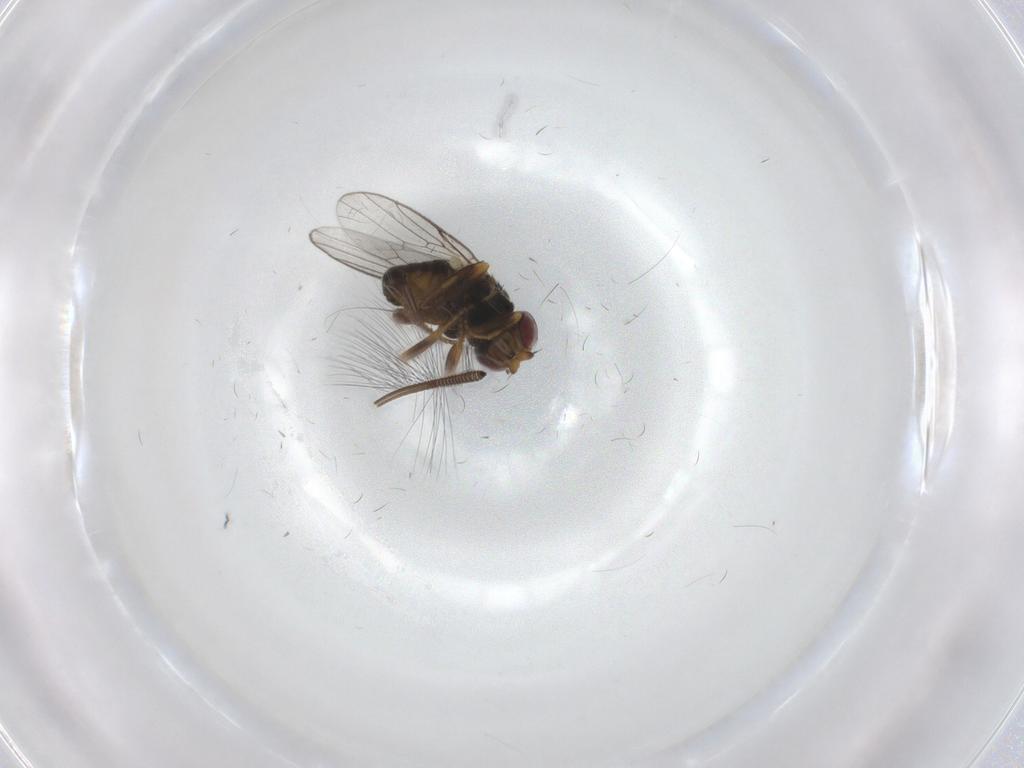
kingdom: Animalia
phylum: Arthropoda
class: Insecta
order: Diptera
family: Chloropidae
